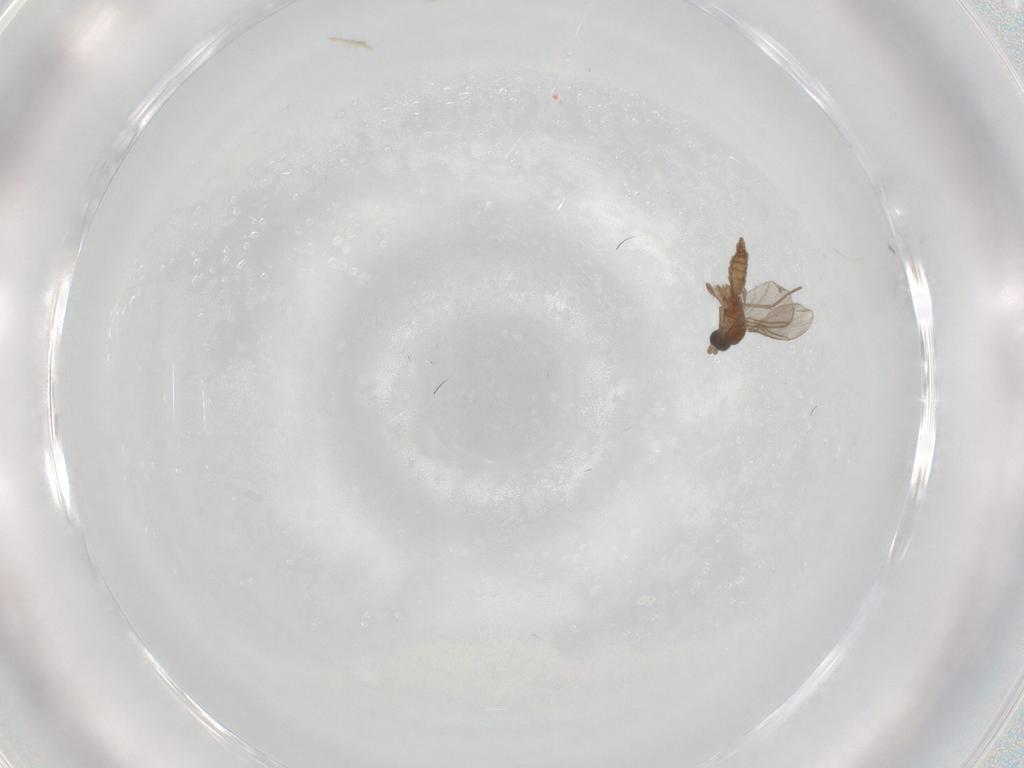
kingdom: Animalia
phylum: Arthropoda
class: Insecta
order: Diptera
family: Sciaridae
